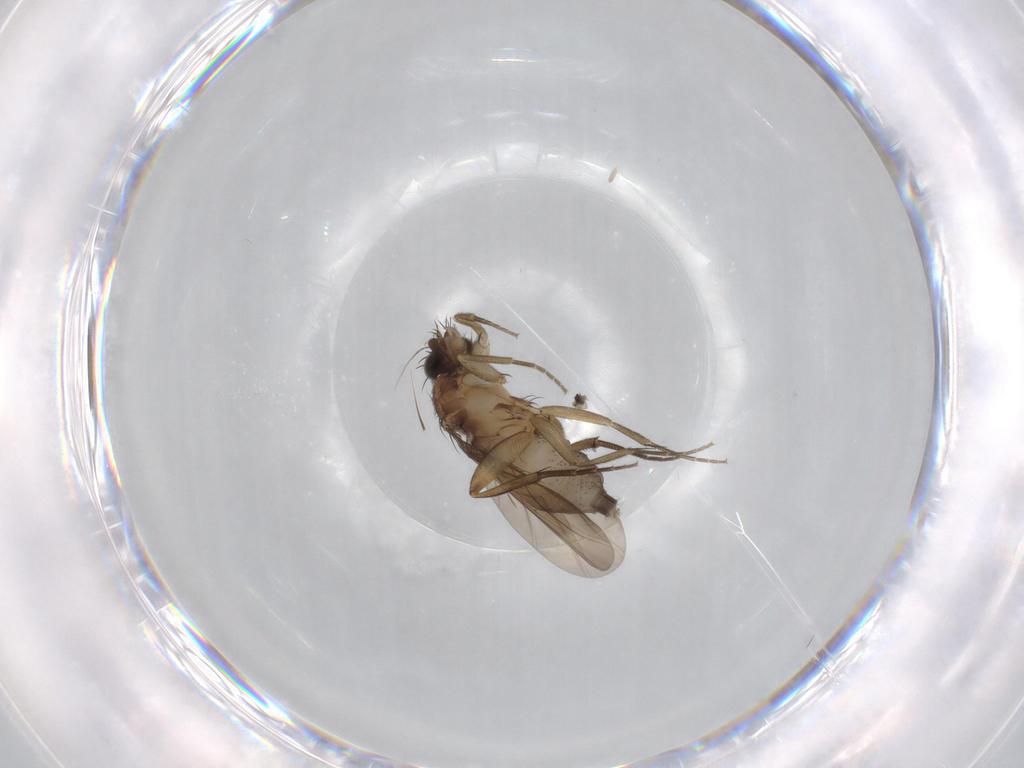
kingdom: Animalia
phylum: Arthropoda
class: Insecta
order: Diptera
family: Phoridae
